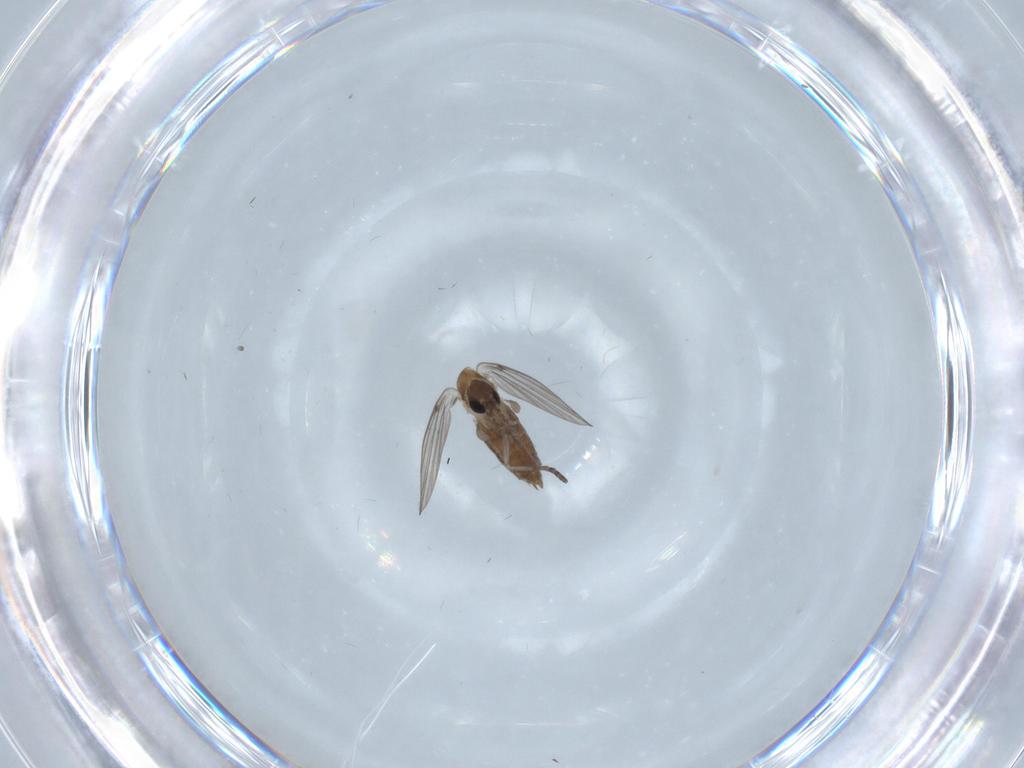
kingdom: Animalia
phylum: Arthropoda
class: Insecta
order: Diptera
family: Psychodidae
